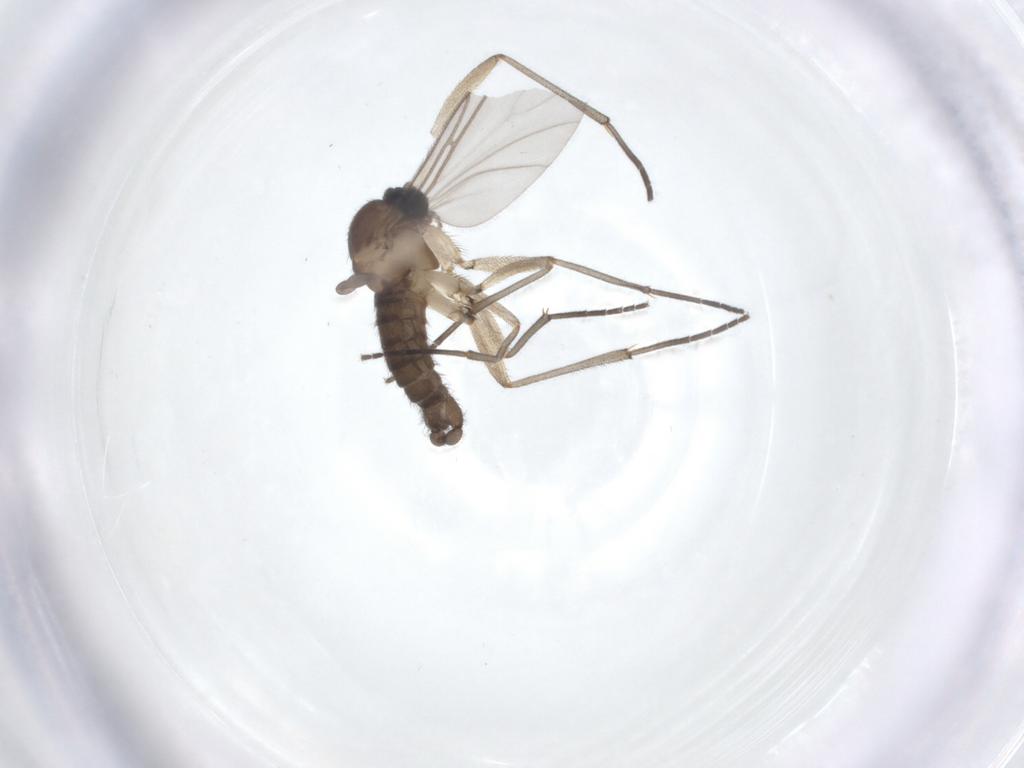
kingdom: Animalia
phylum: Arthropoda
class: Insecta
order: Diptera
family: Sciaridae
